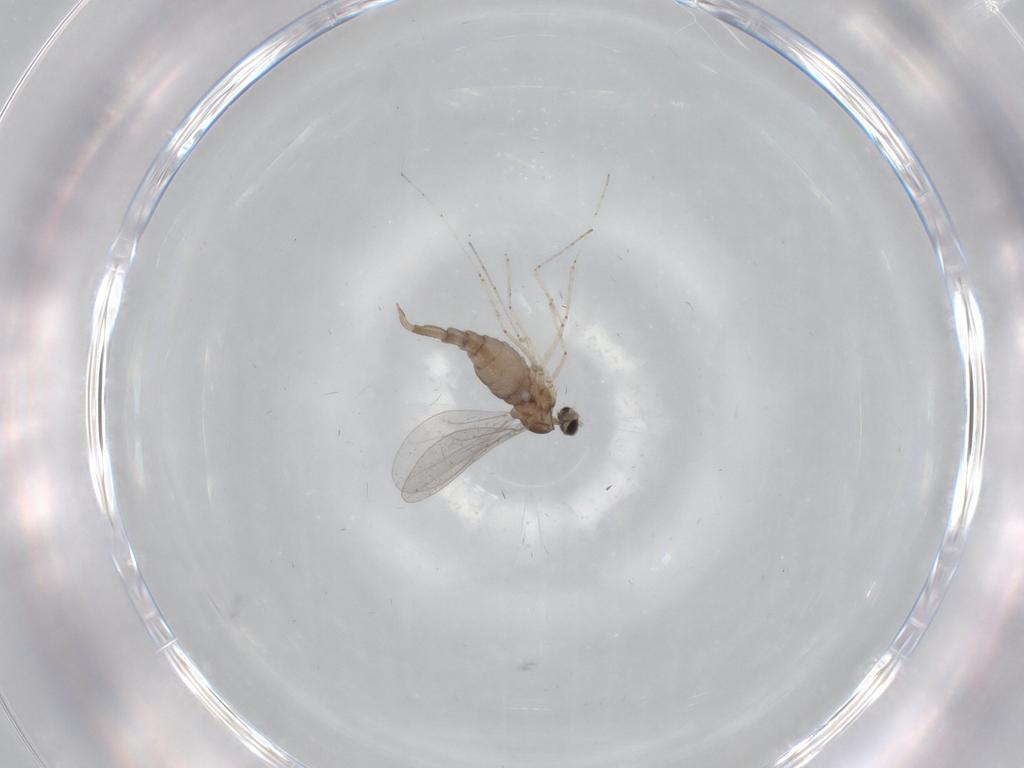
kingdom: Animalia
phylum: Arthropoda
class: Insecta
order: Diptera
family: Cecidomyiidae
